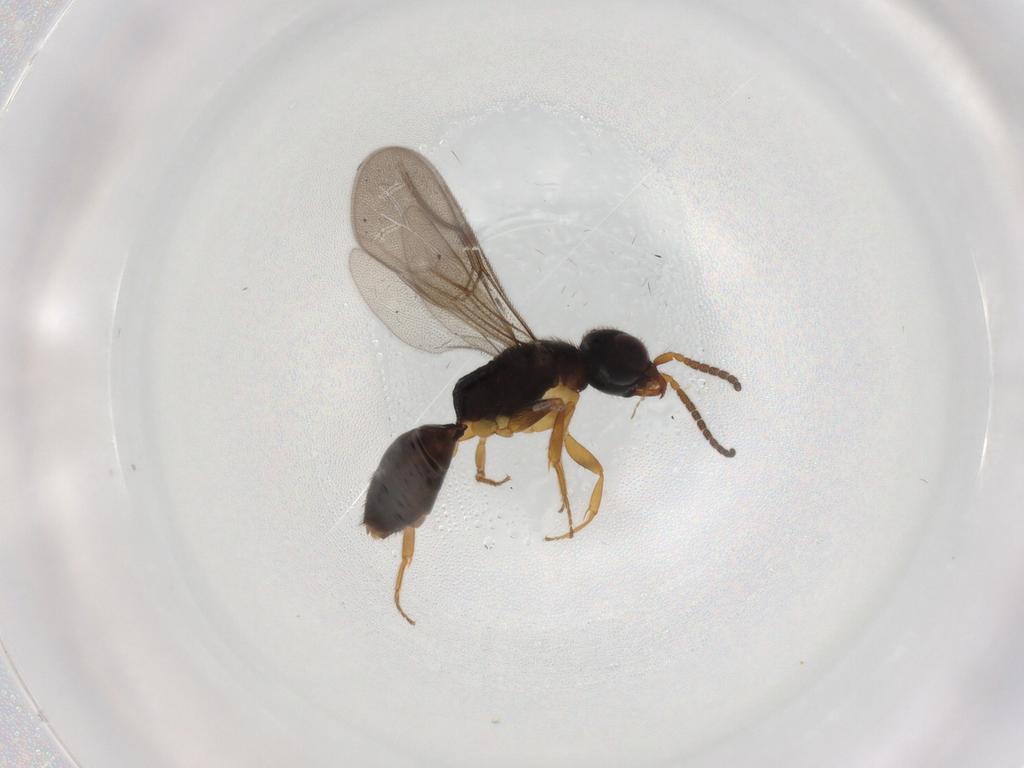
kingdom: Animalia
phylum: Arthropoda
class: Insecta
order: Hymenoptera
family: Bethylidae
